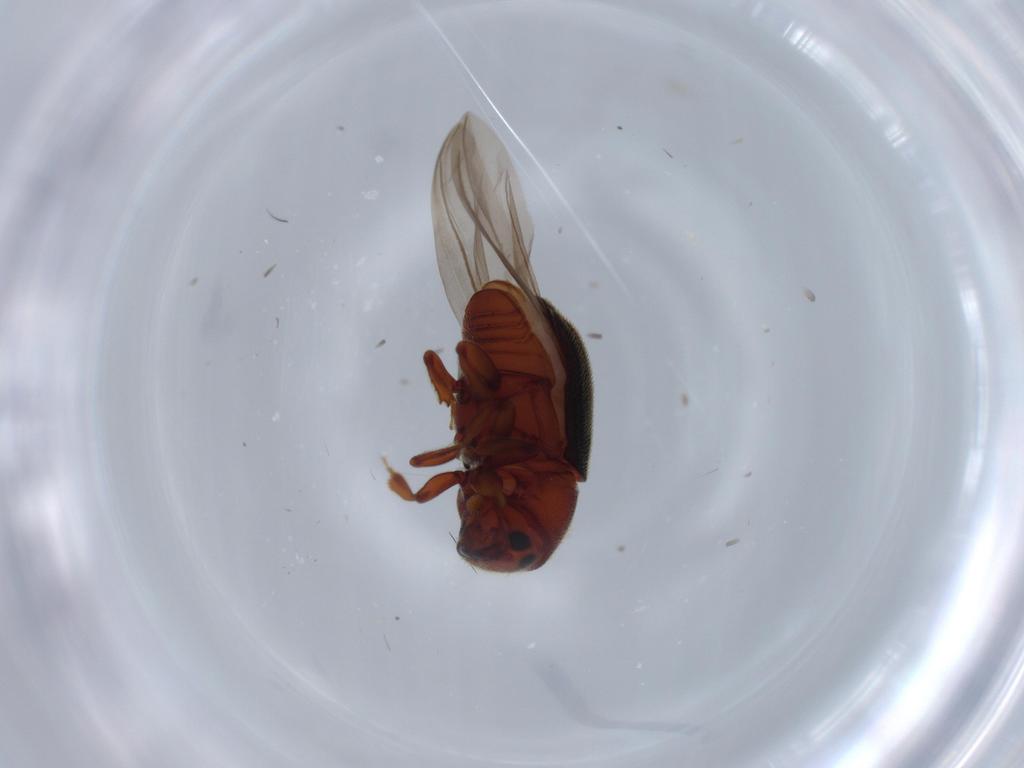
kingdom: Animalia
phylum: Arthropoda
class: Insecta
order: Coleoptera
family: Curculionidae
